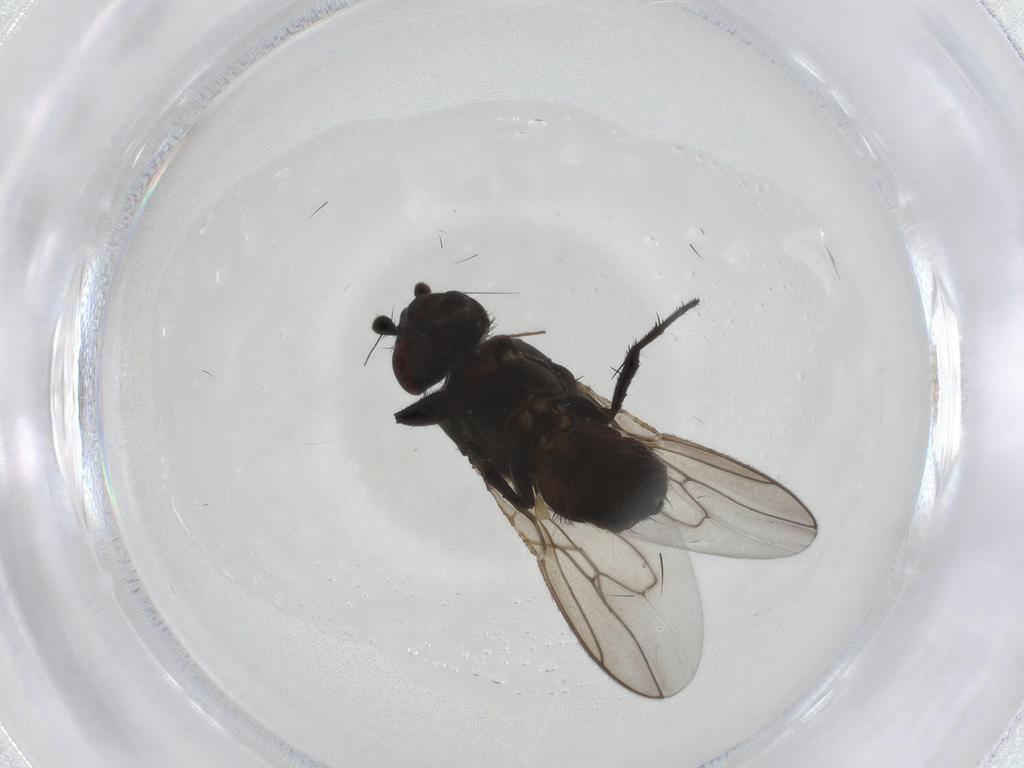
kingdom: Animalia
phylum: Arthropoda
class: Insecta
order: Diptera
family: Sphaeroceridae
